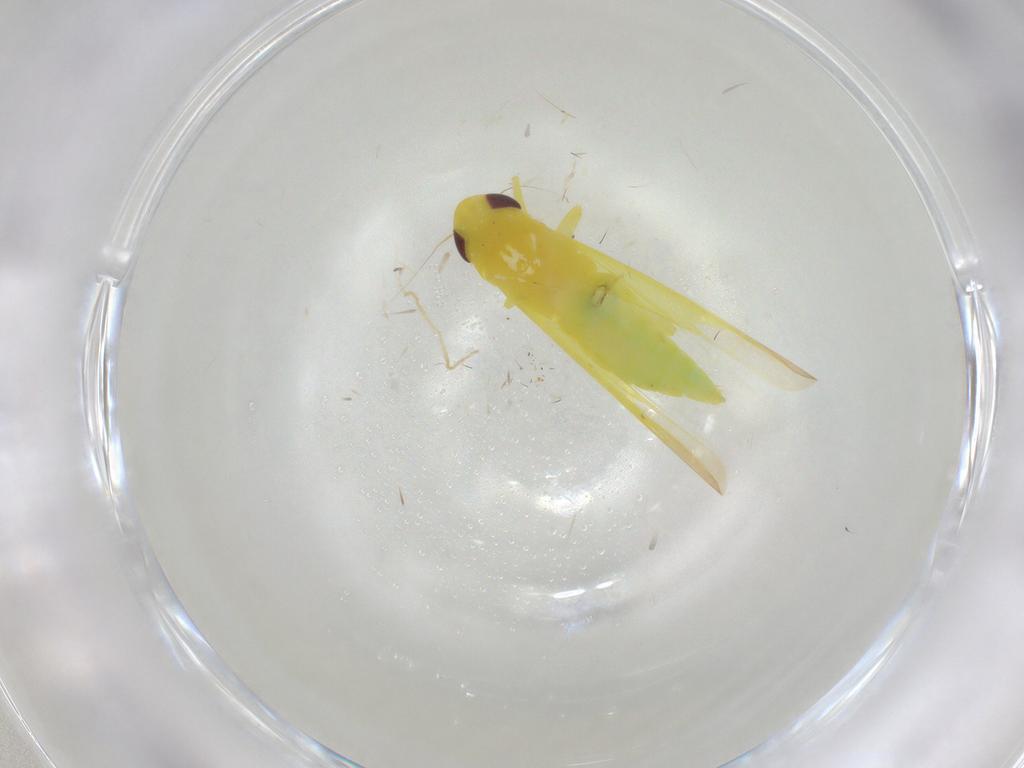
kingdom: Animalia
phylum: Arthropoda
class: Insecta
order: Hemiptera
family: Cicadellidae
